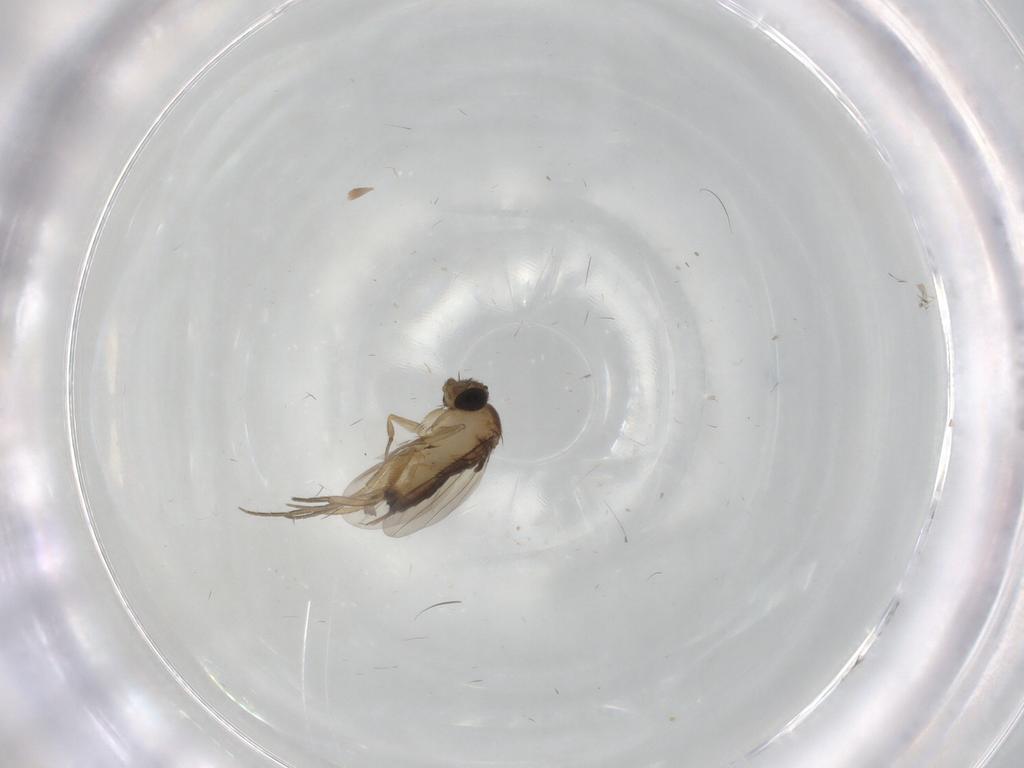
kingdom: Animalia
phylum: Arthropoda
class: Insecta
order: Diptera
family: Phoridae
